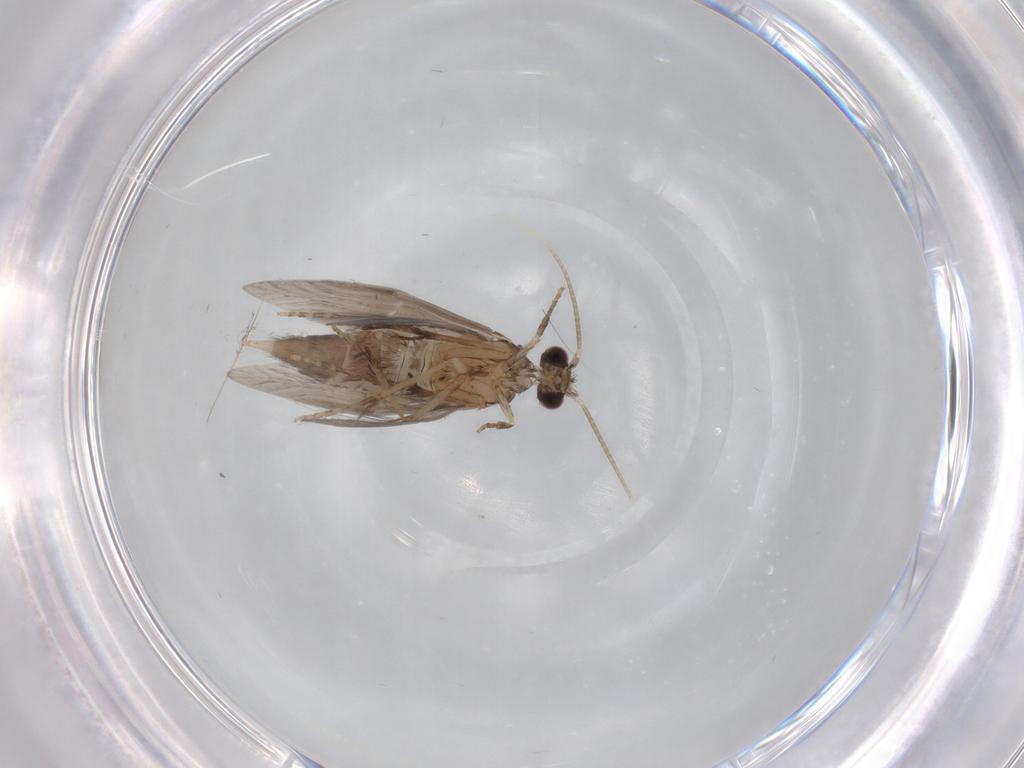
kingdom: Animalia
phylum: Arthropoda
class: Insecta
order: Trichoptera
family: Hydroptilidae
